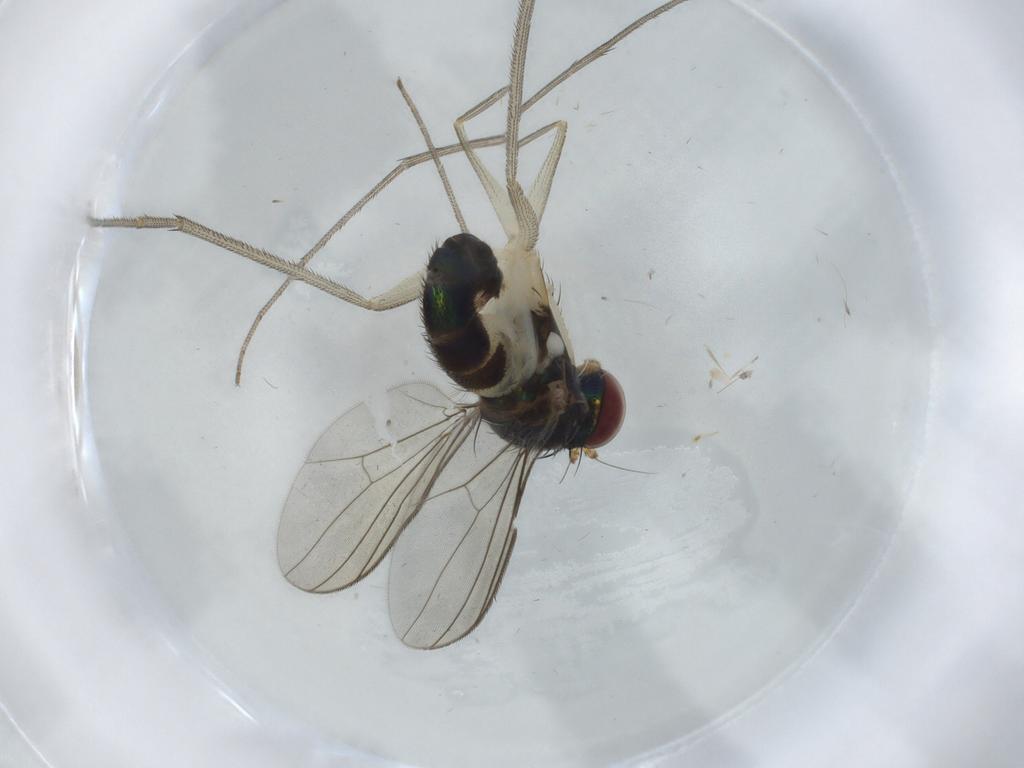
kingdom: Animalia
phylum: Arthropoda
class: Insecta
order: Diptera
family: Dolichopodidae
